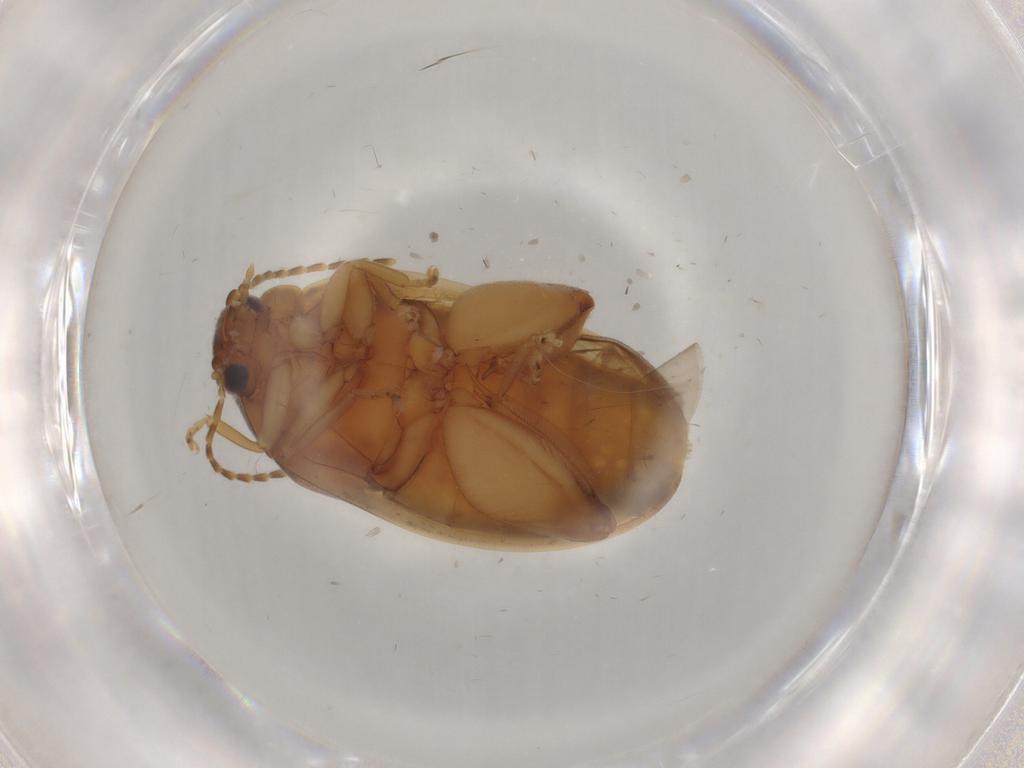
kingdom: Animalia
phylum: Arthropoda
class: Insecta
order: Coleoptera
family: Scirtidae
